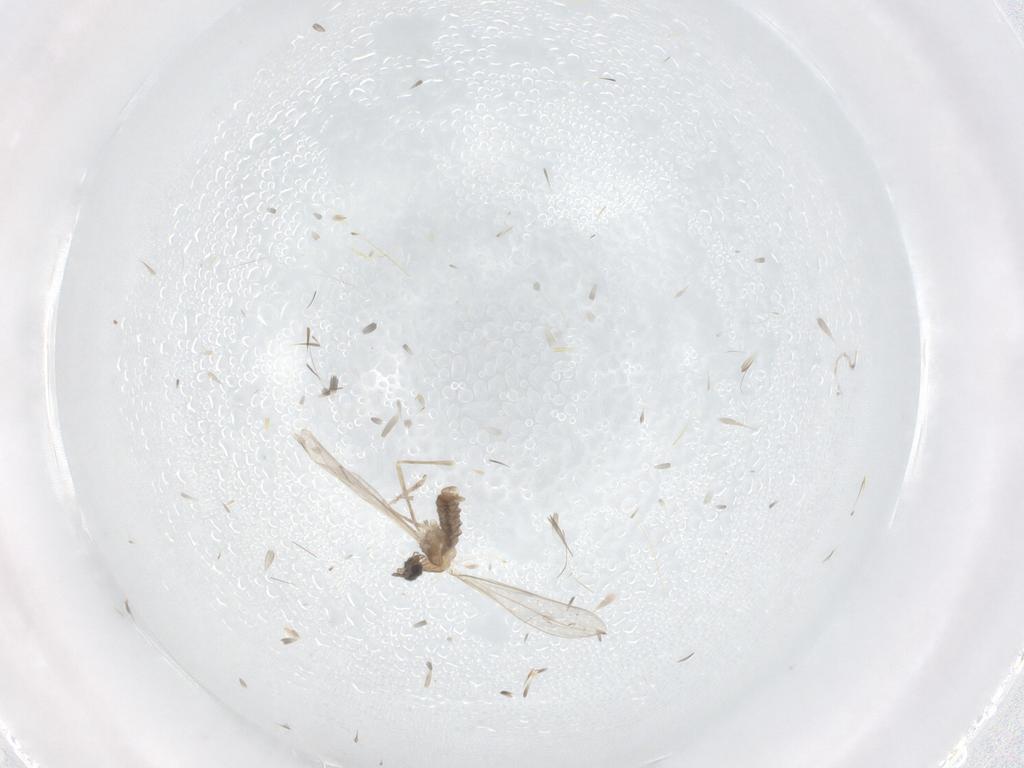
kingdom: Animalia
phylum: Arthropoda
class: Insecta
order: Diptera
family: Cecidomyiidae
